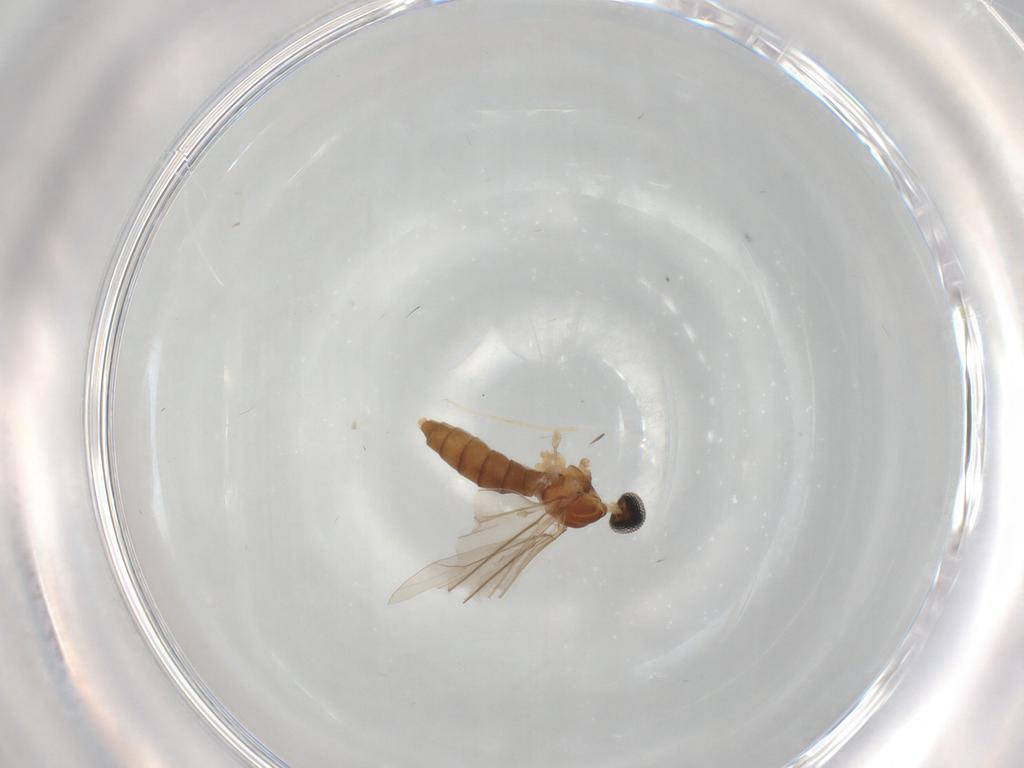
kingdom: Animalia
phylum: Arthropoda
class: Insecta
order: Diptera
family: Cecidomyiidae
